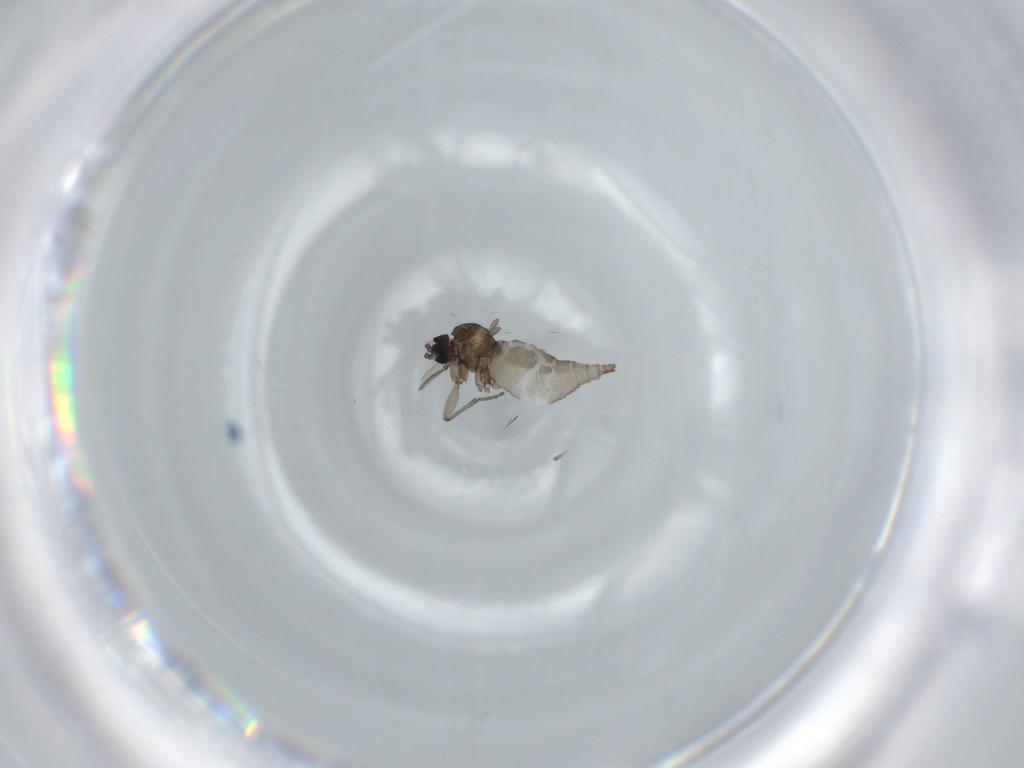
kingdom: Animalia
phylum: Arthropoda
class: Insecta
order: Diptera
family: Sciaridae
